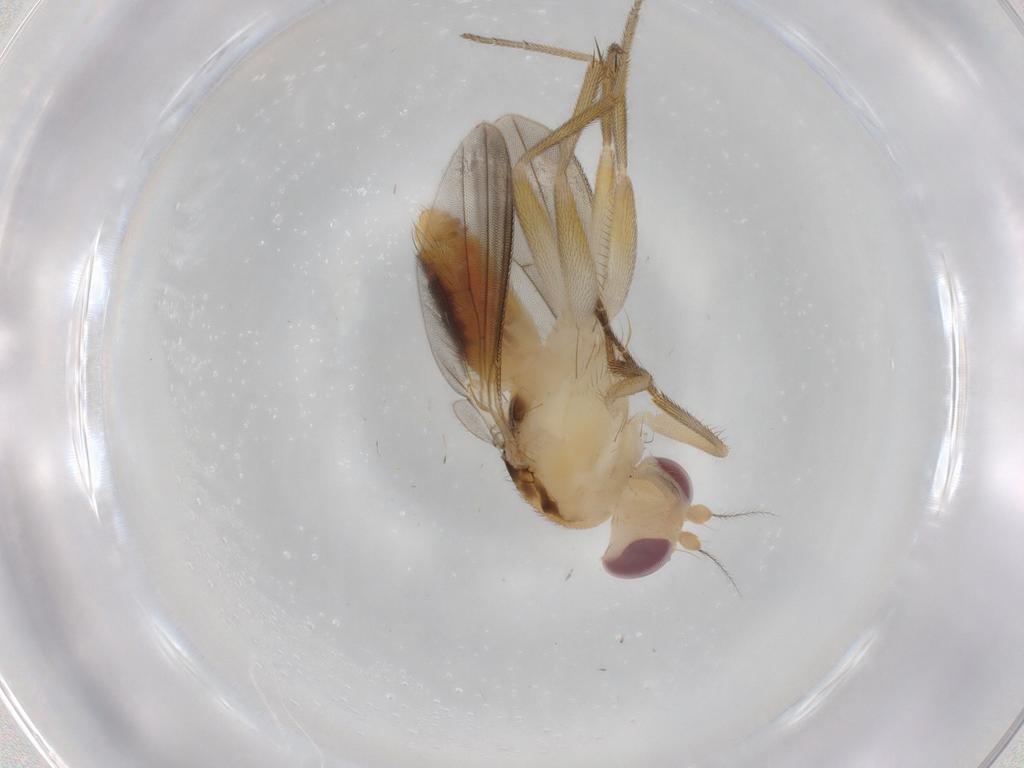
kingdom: Animalia
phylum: Arthropoda
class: Insecta
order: Diptera
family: Agromyzidae
